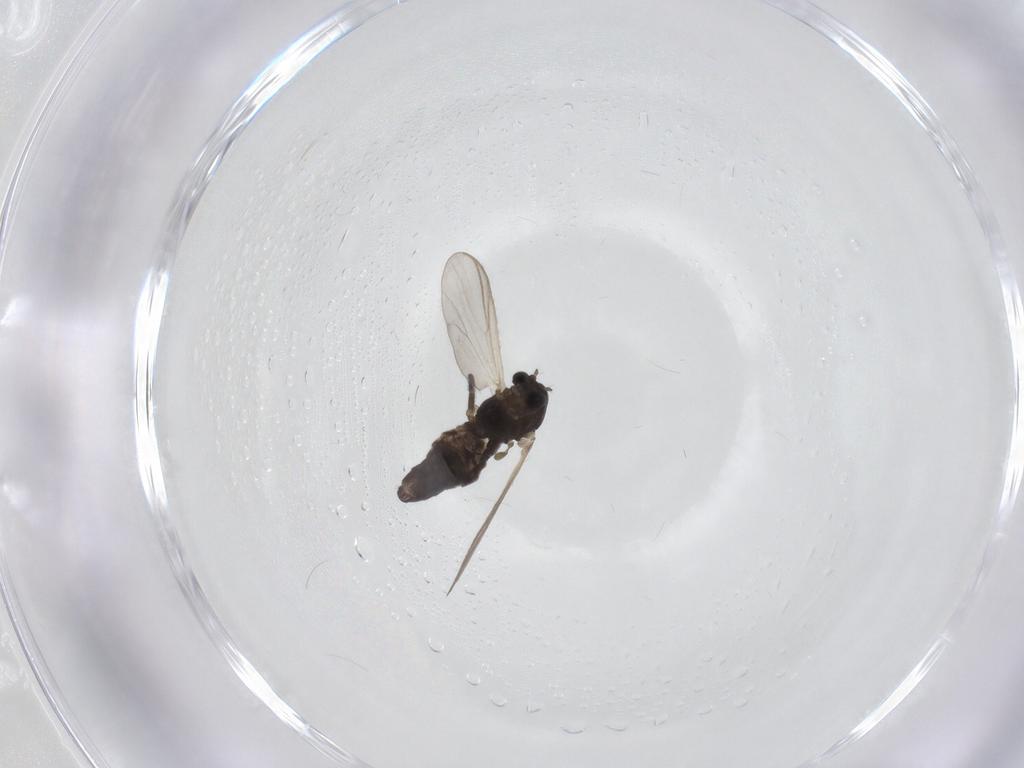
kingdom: Animalia
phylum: Arthropoda
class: Insecta
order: Diptera
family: Chironomidae
